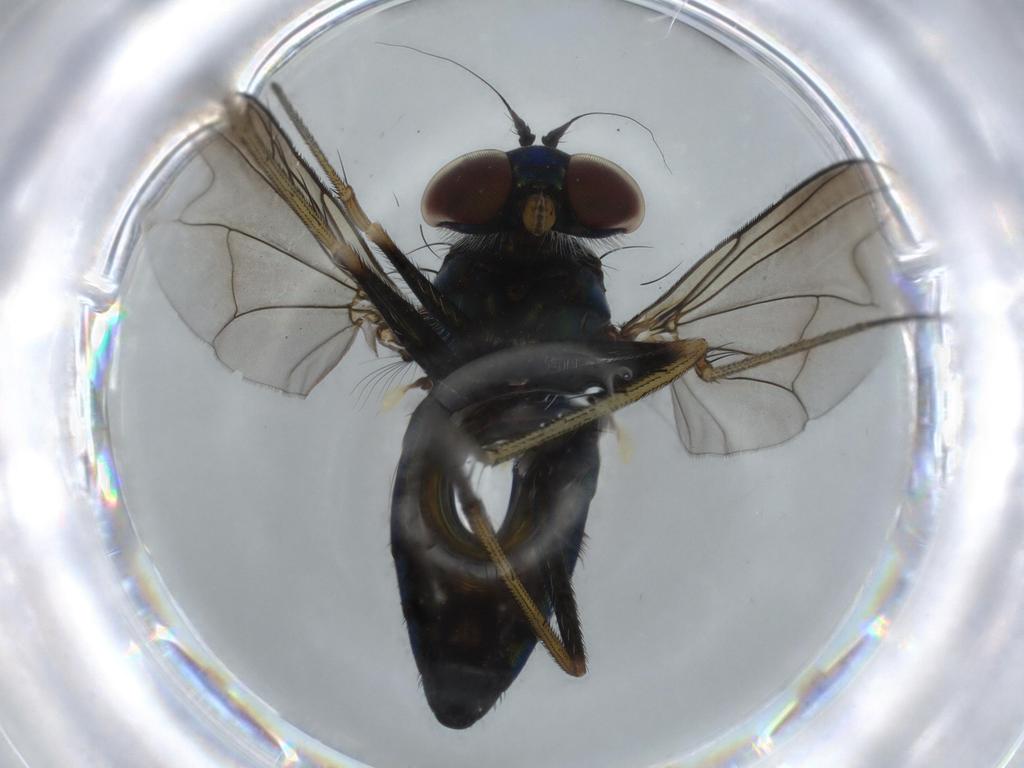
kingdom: Animalia
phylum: Arthropoda
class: Insecta
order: Diptera
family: Dolichopodidae
